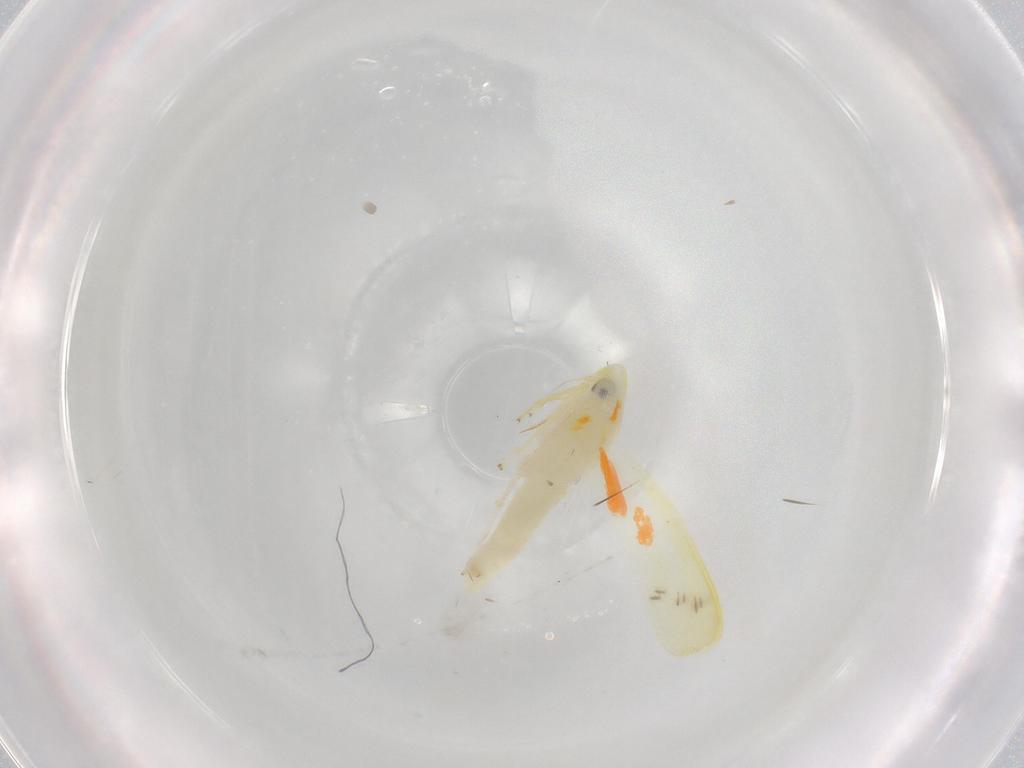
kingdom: Animalia
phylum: Arthropoda
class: Insecta
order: Hemiptera
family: Cicadellidae
